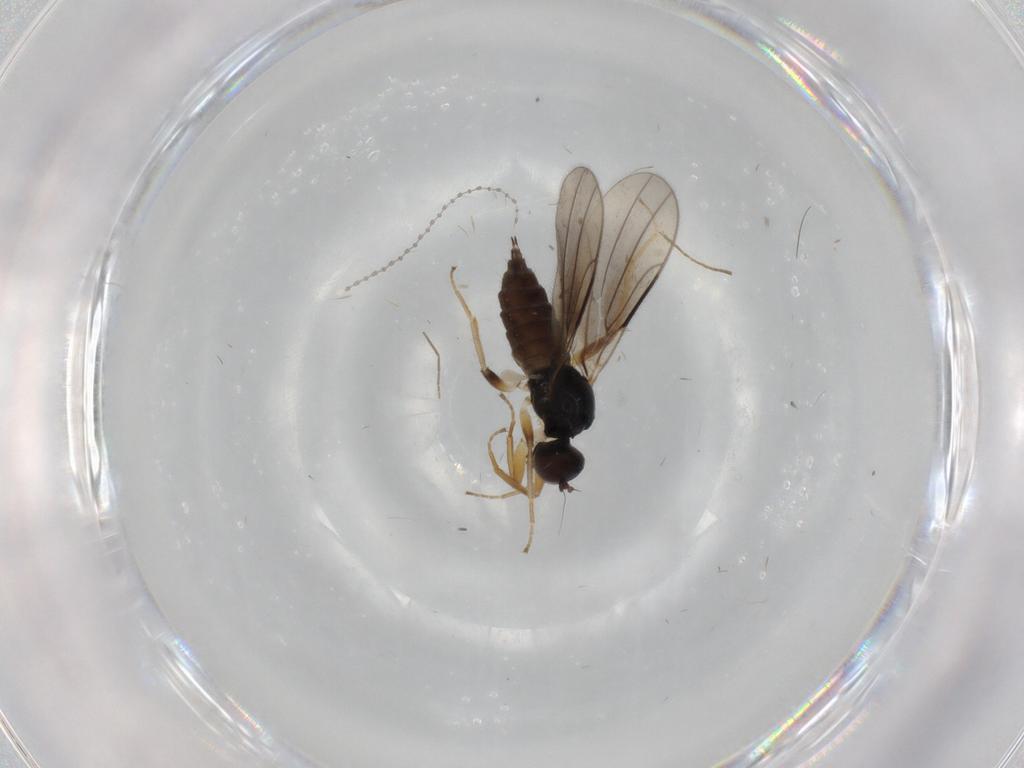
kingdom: Animalia
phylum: Arthropoda
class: Insecta
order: Diptera
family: Hybotidae
